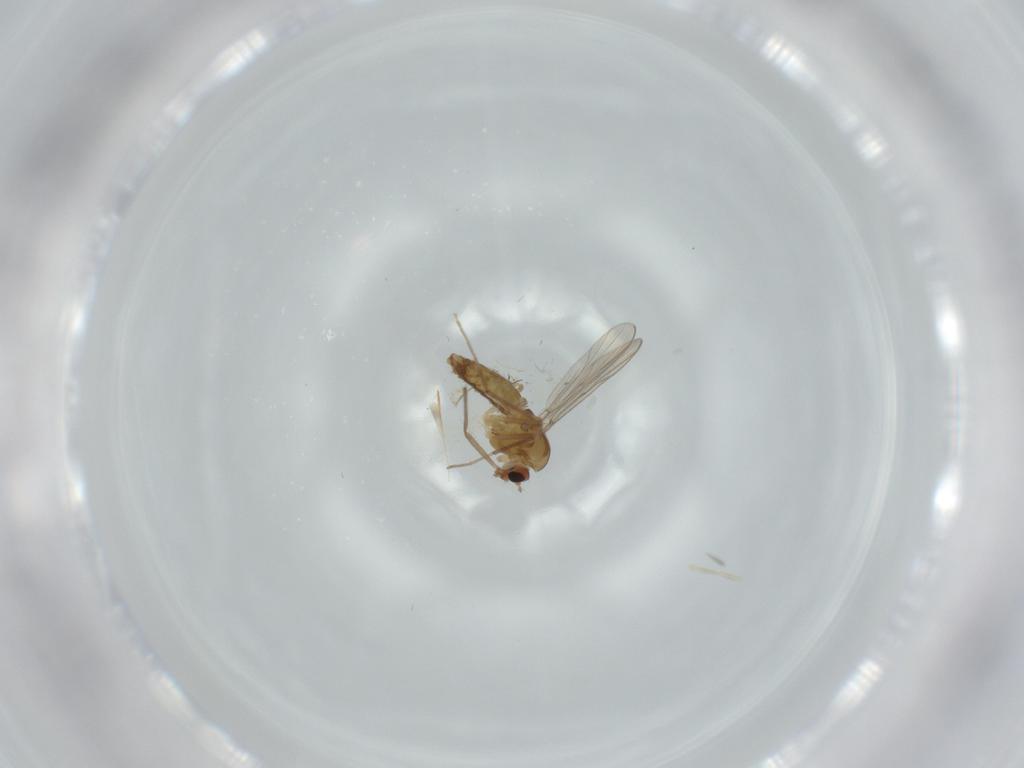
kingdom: Animalia
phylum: Arthropoda
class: Insecta
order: Diptera
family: Chironomidae
